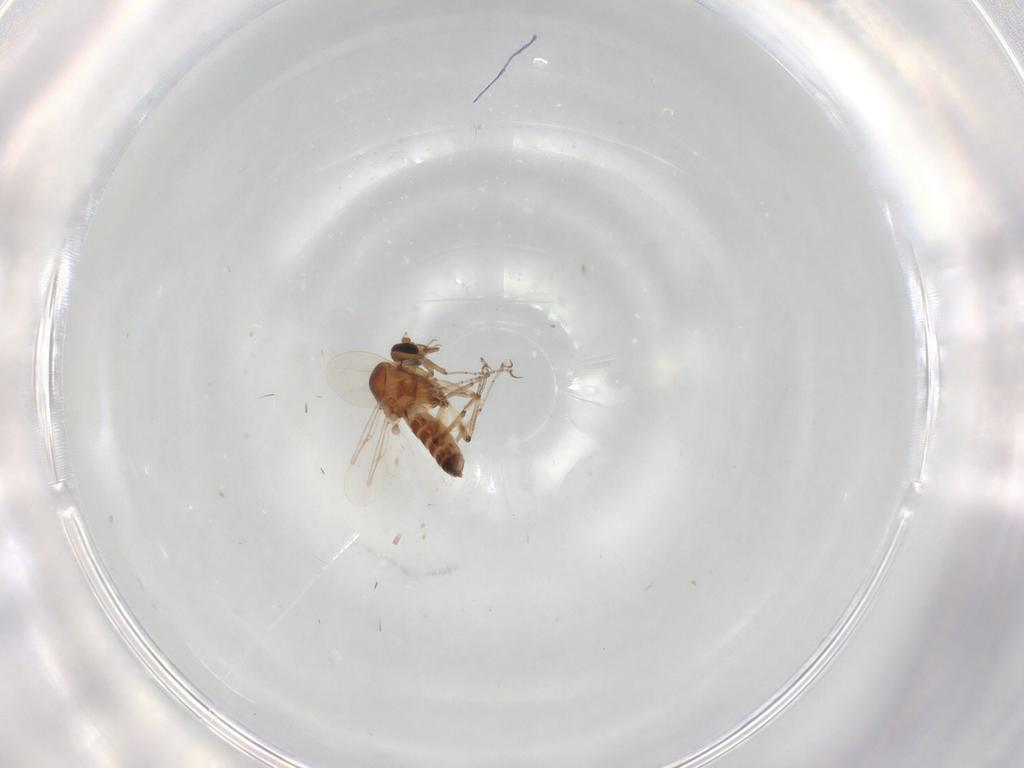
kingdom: Animalia
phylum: Arthropoda
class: Insecta
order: Diptera
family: Ceratopogonidae
